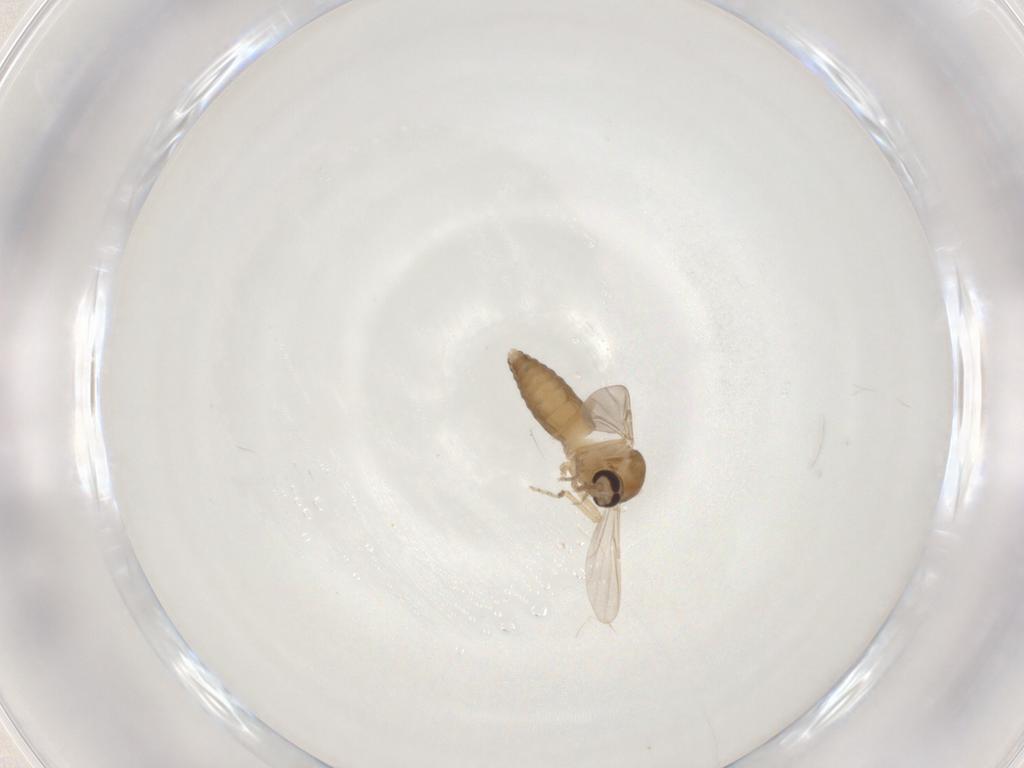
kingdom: Animalia
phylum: Arthropoda
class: Insecta
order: Diptera
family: Ceratopogonidae
